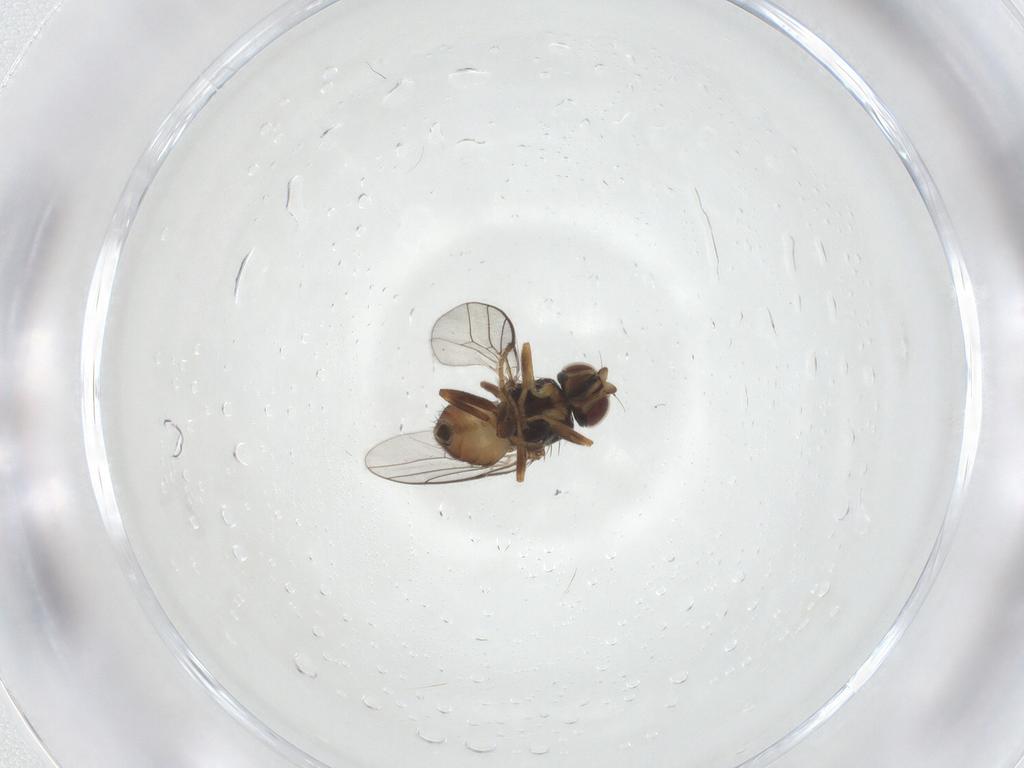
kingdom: Animalia
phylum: Arthropoda
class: Insecta
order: Diptera
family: Chloropidae
